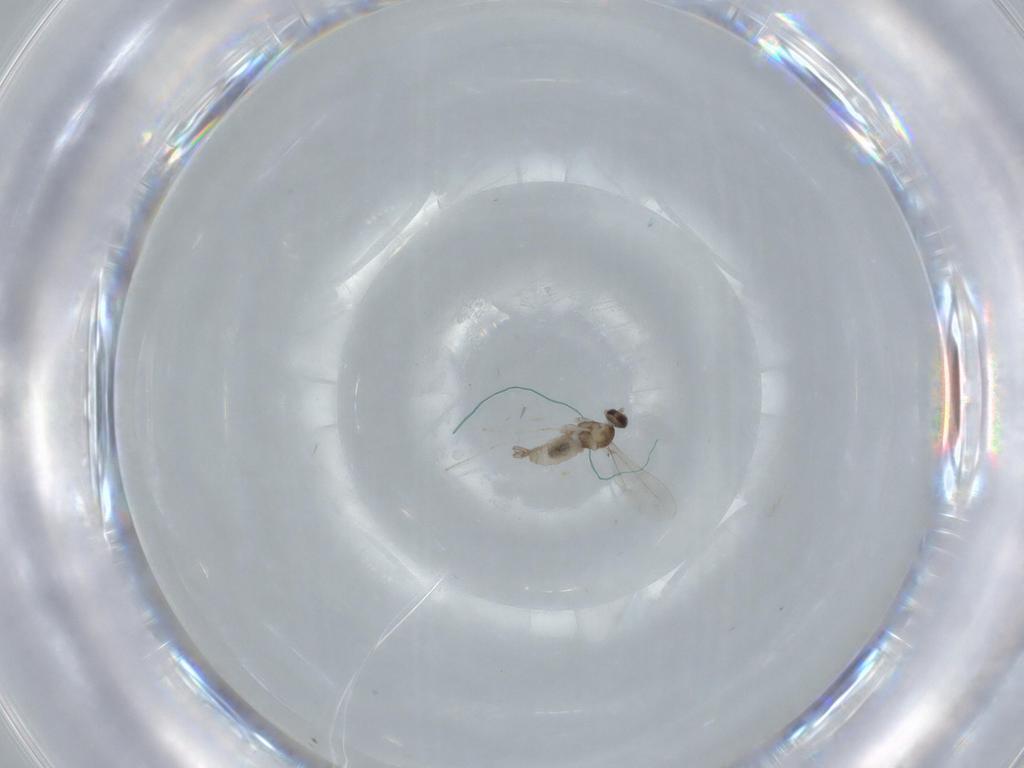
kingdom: Animalia
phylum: Arthropoda
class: Insecta
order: Diptera
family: Cecidomyiidae
